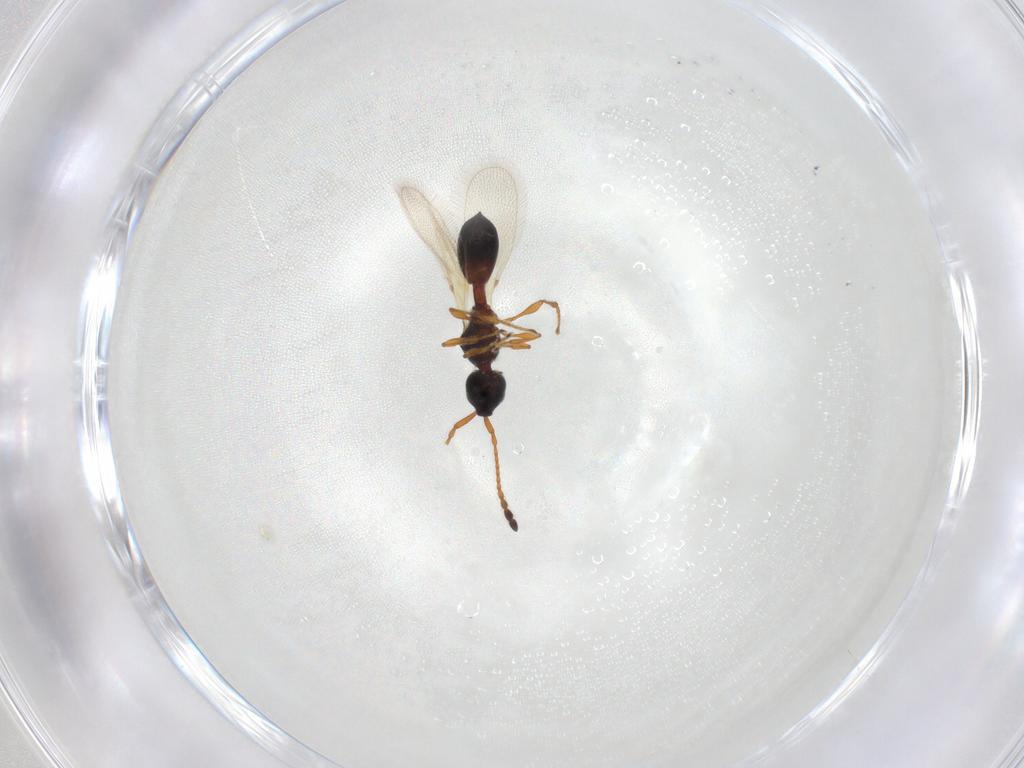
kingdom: Animalia
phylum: Arthropoda
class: Insecta
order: Hymenoptera
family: Diapriidae
